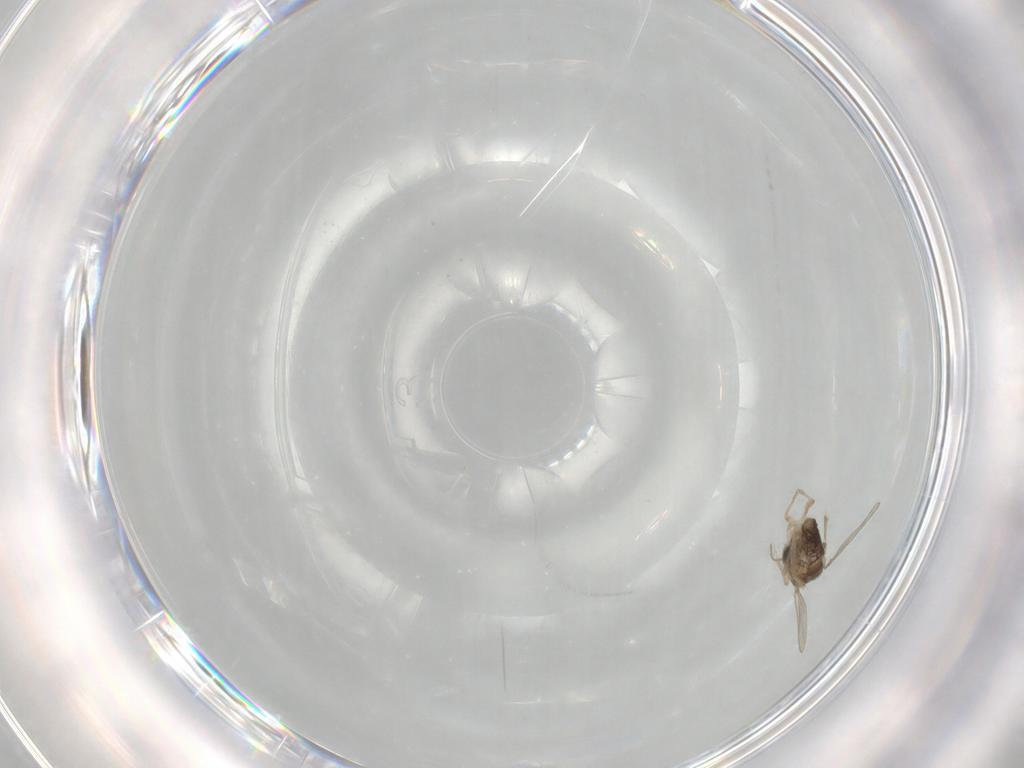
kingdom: Animalia
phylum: Arthropoda
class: Insecta
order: Diptera
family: Chironomidae
